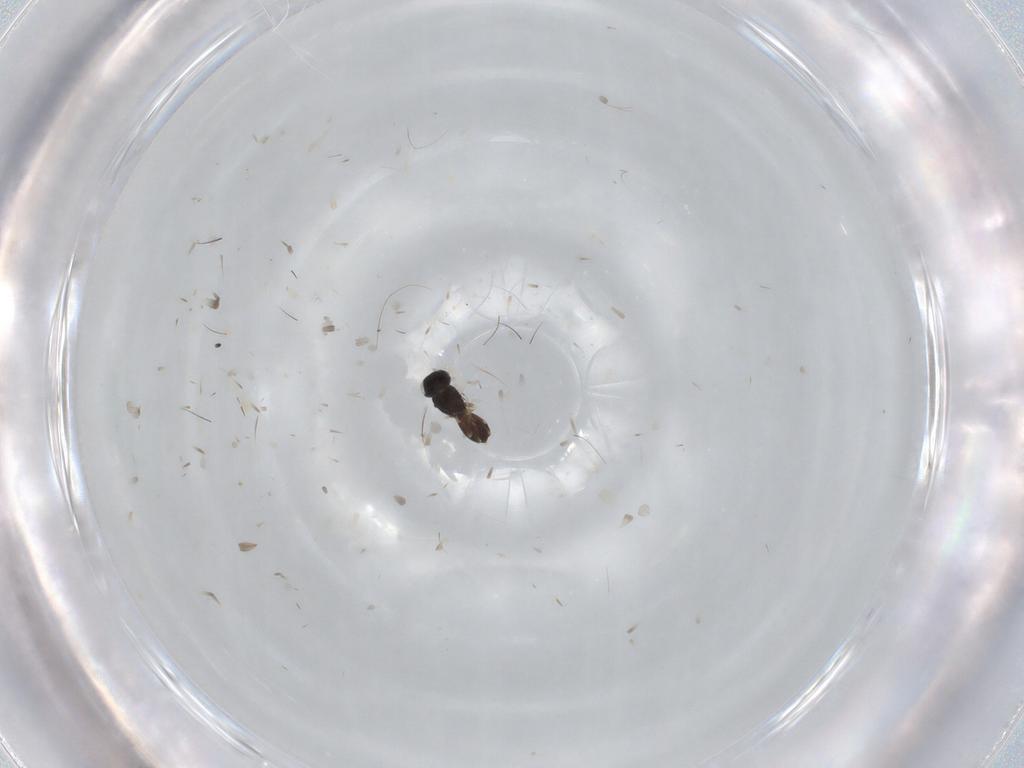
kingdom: Animalia
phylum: Arthropoda
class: Insecta
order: Hymenoptera
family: Scelionidae
